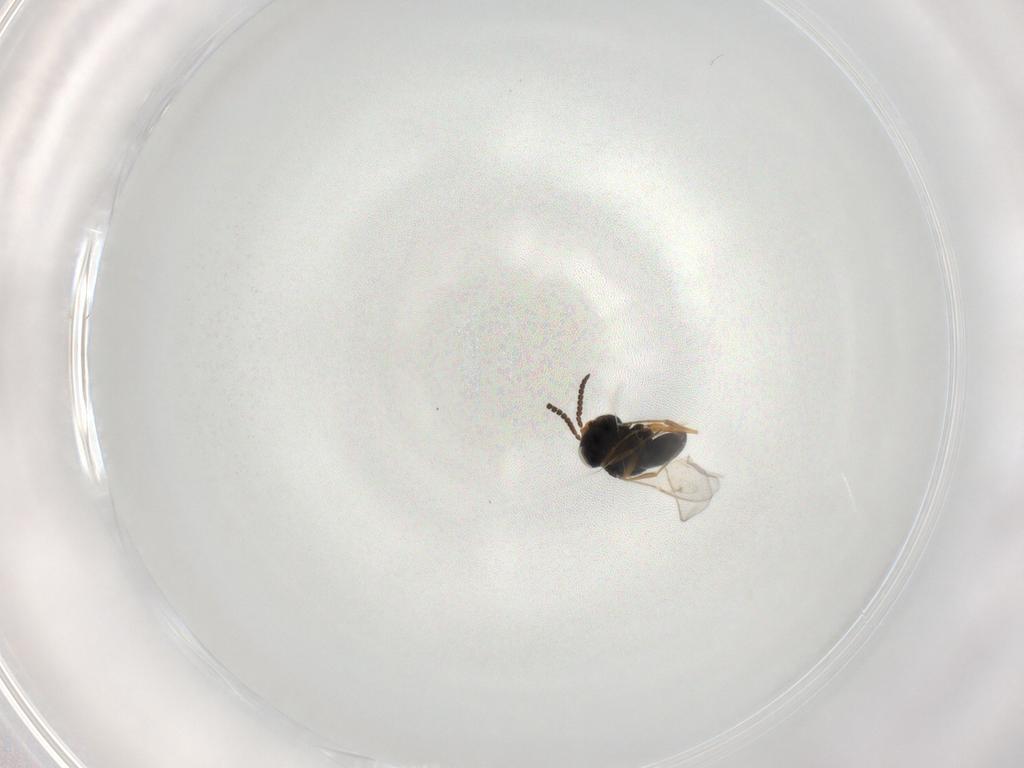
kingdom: Animalia
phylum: Arthropoda
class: Insecta
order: Hymenoptera
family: Scelionidae
